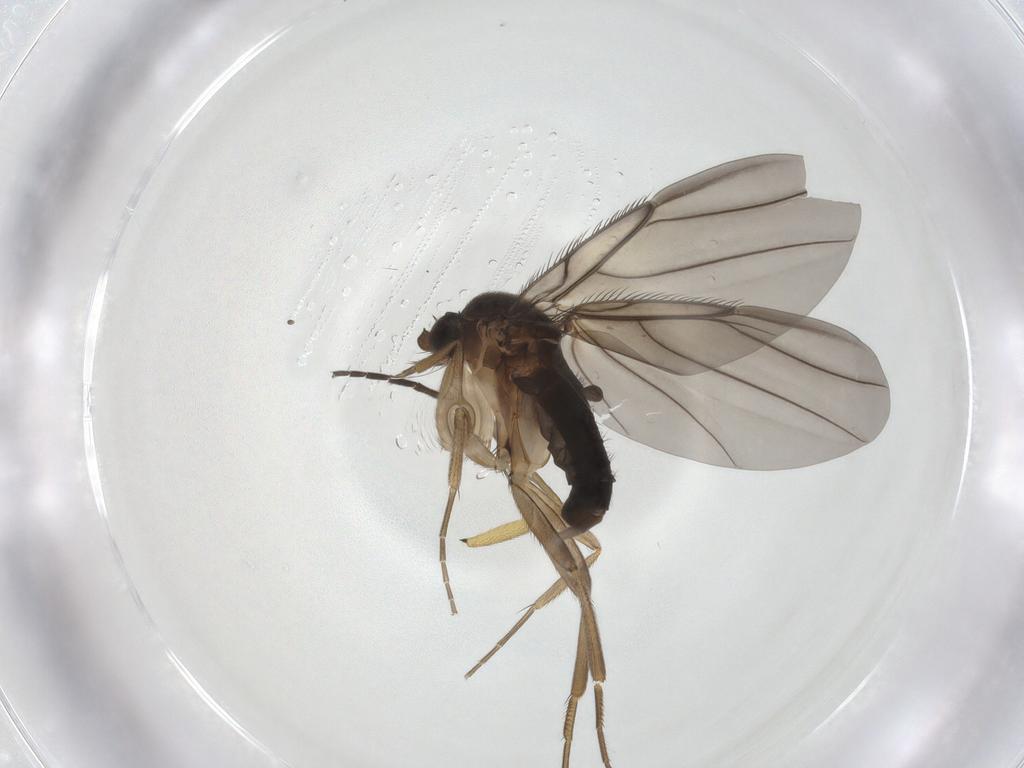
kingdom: Animalia
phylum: Arthropoda
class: Insecta
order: Diptera
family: Phoridae
